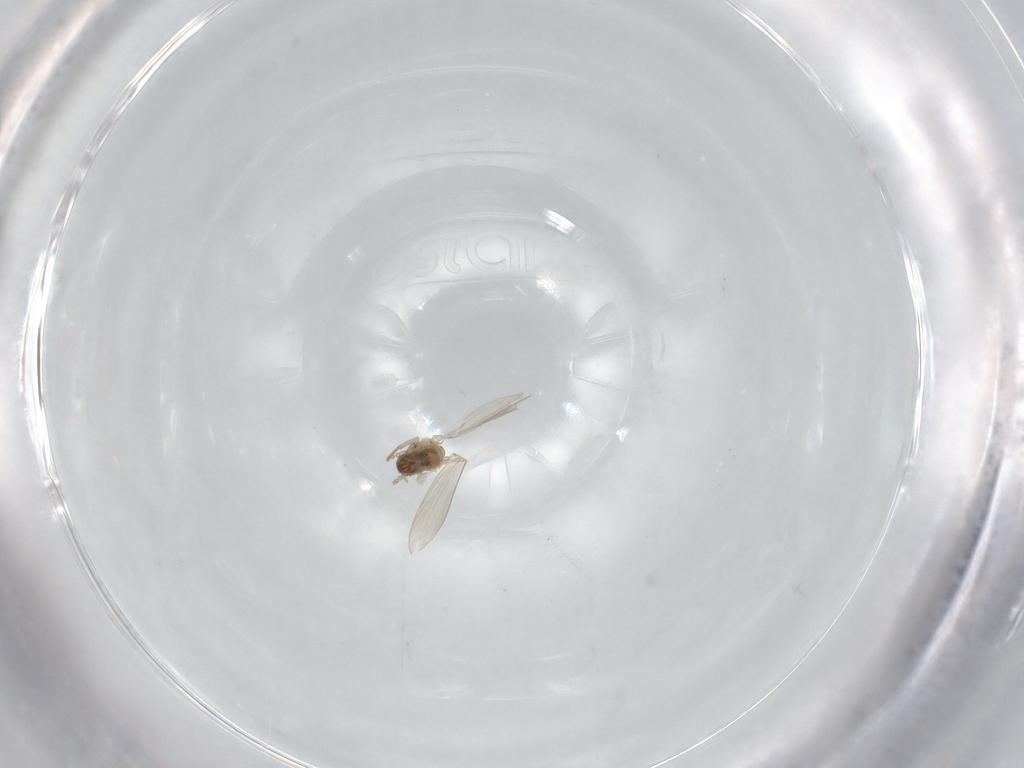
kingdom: Animalia
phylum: Arthropoda
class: Insecta
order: Diptera
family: Psychodidae
